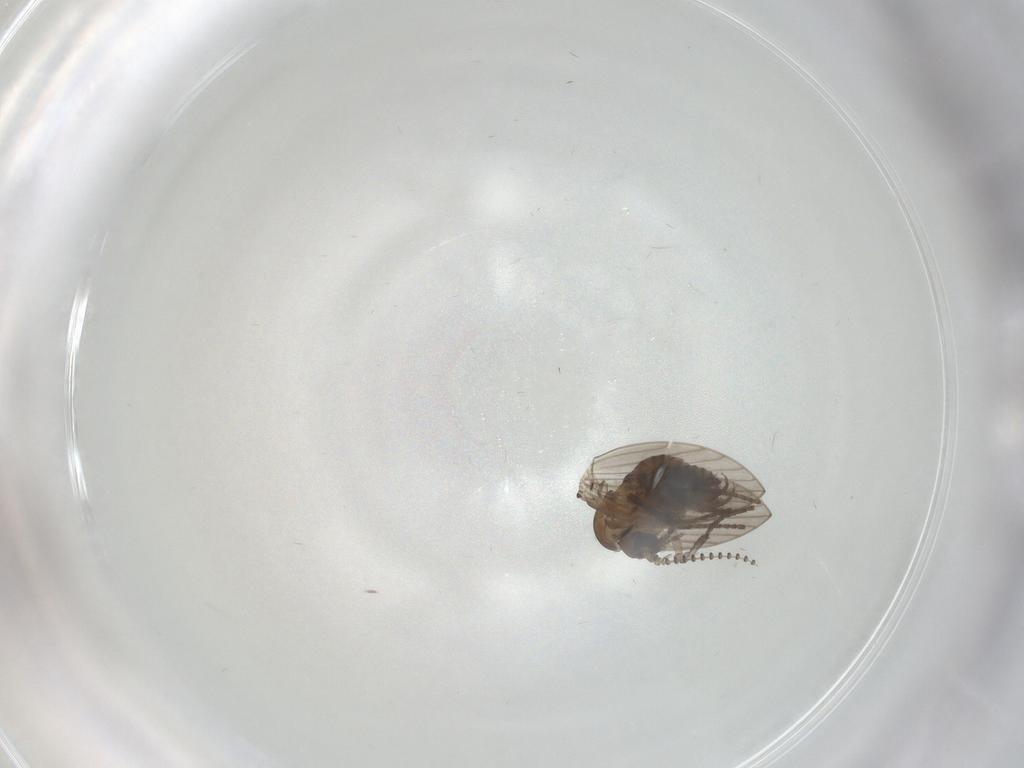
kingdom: Animalia
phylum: Arthropoda
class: Insecta
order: Diptera
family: Psychodidae
